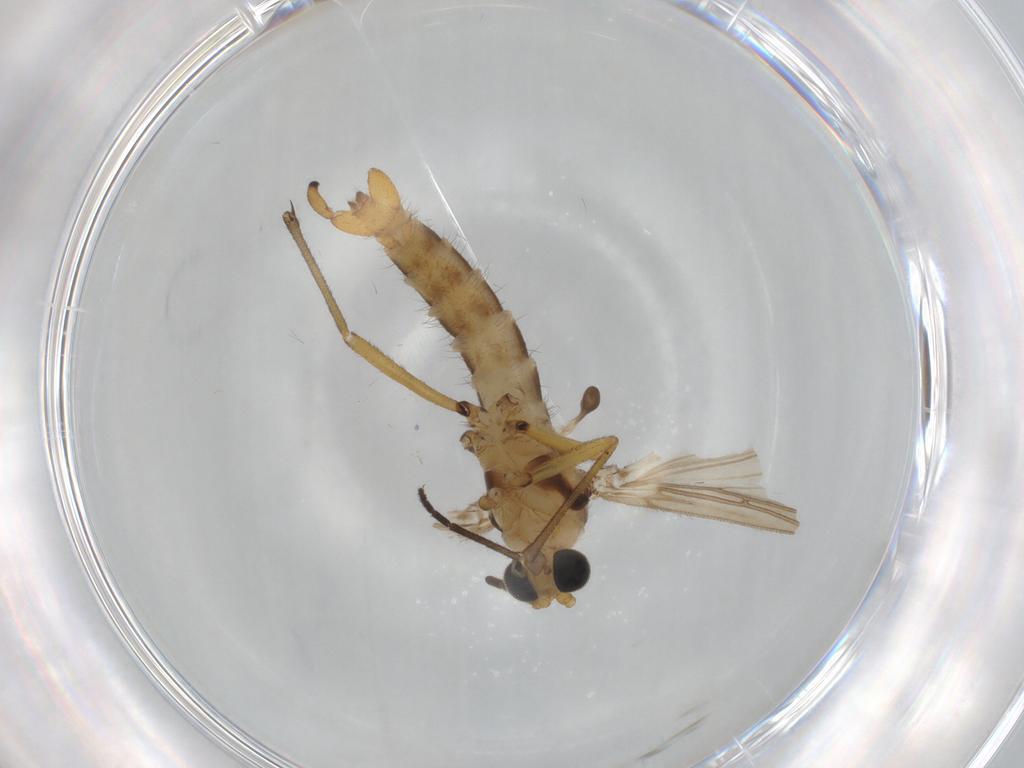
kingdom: Animalia
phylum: Arthropoda
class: Insecta
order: Diptera
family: Sciaridae
